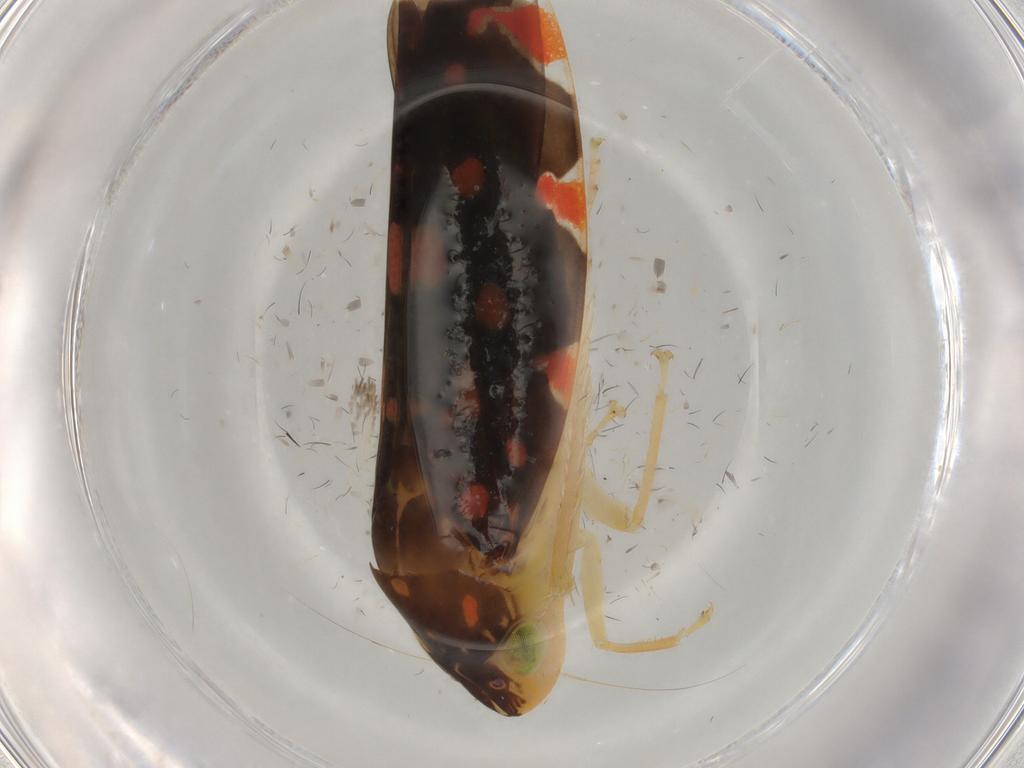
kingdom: Animalia
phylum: Arthropoda
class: Insecta
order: Hemiptera
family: Cicadellidae
